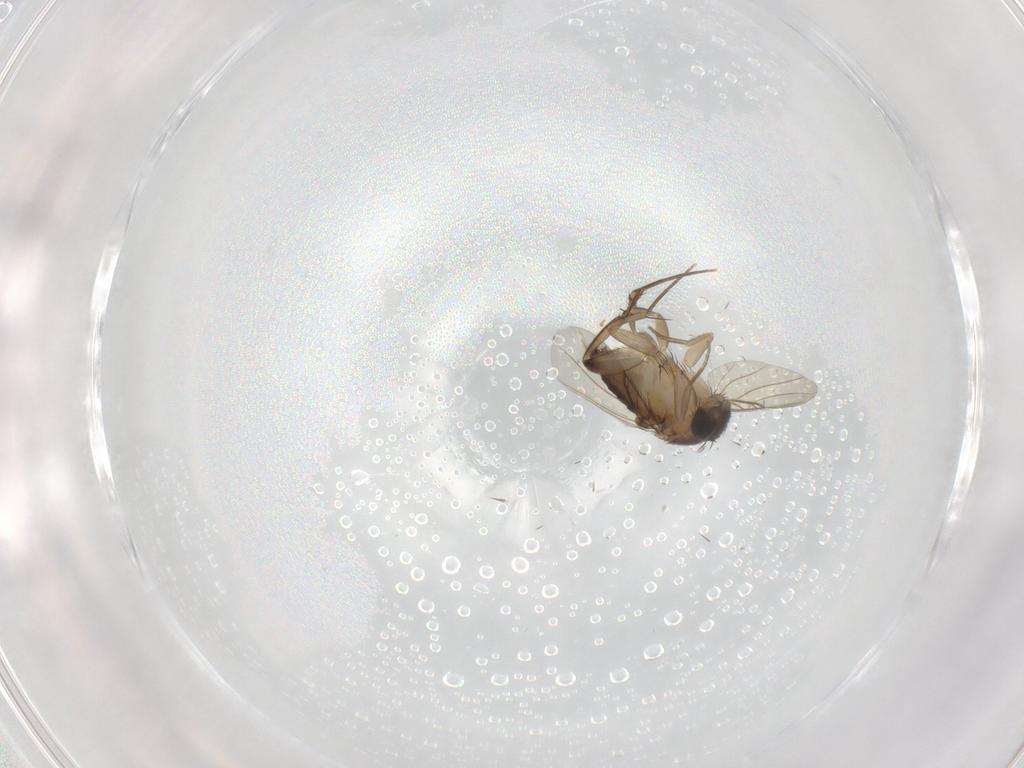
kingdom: Animalia
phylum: Arthropoda
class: Insecta
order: Diptera
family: Phoridae
